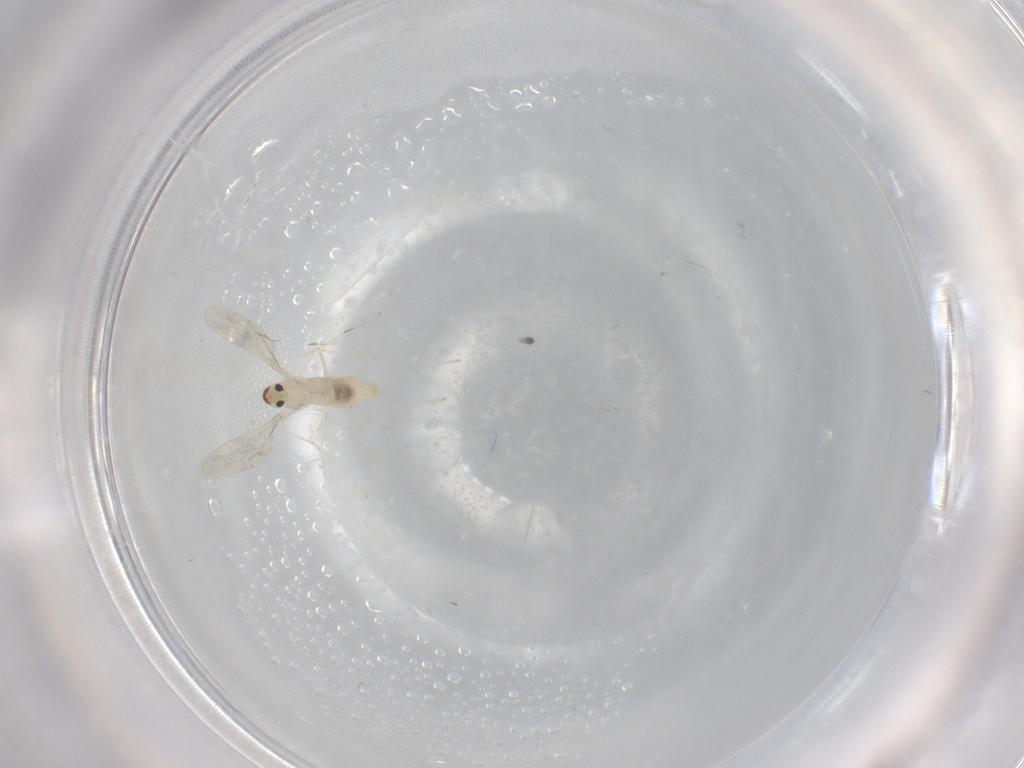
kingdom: Animalia
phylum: Arthropoda
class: Insecta
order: Diptera
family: Cecidomyiidae
